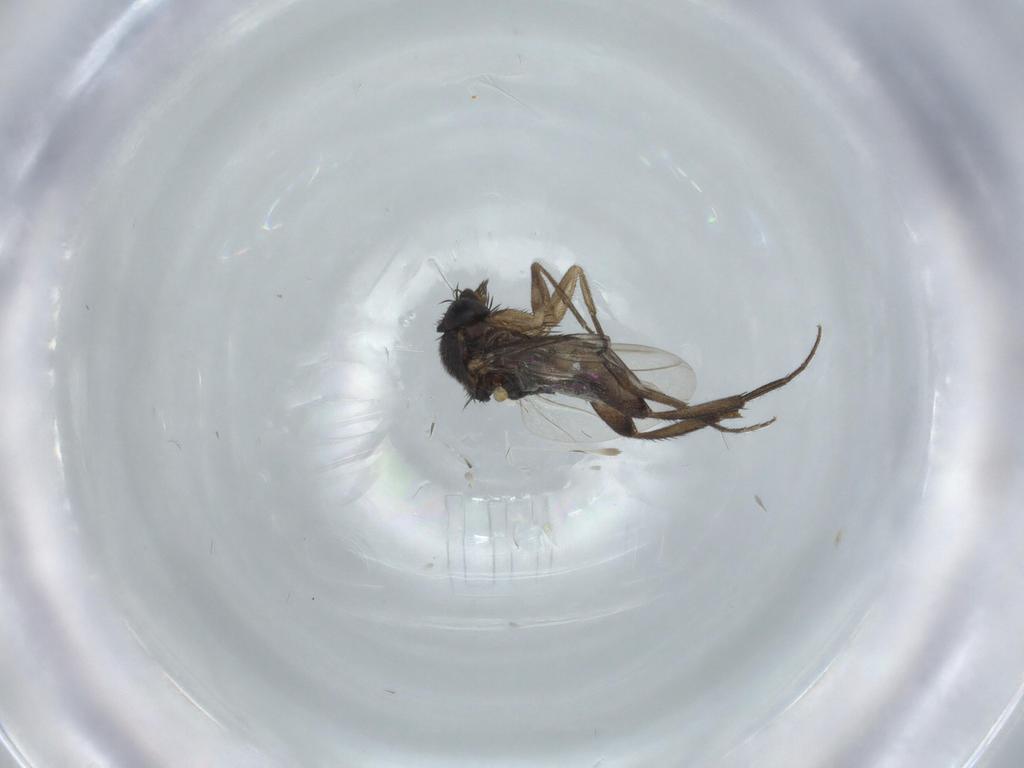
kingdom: Animalia
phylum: Arthropoda
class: Insecta
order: Diptera
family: Phoridae
